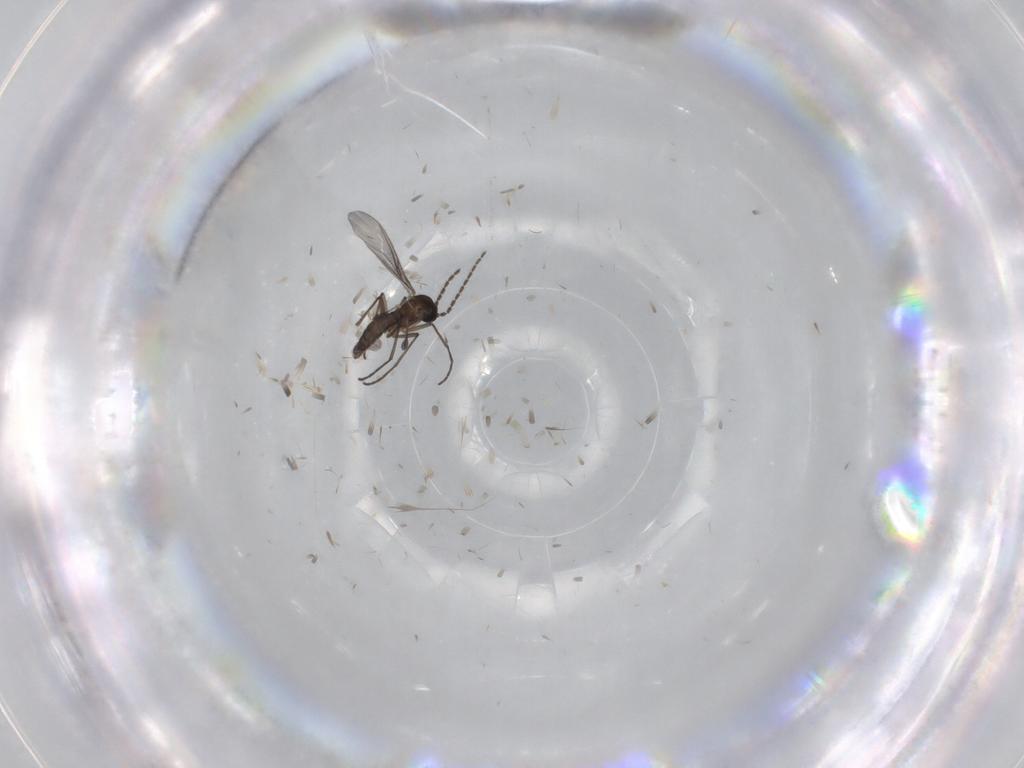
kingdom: Animalia
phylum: Arthropoda
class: Insecta
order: Diptera
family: Sciaridae
